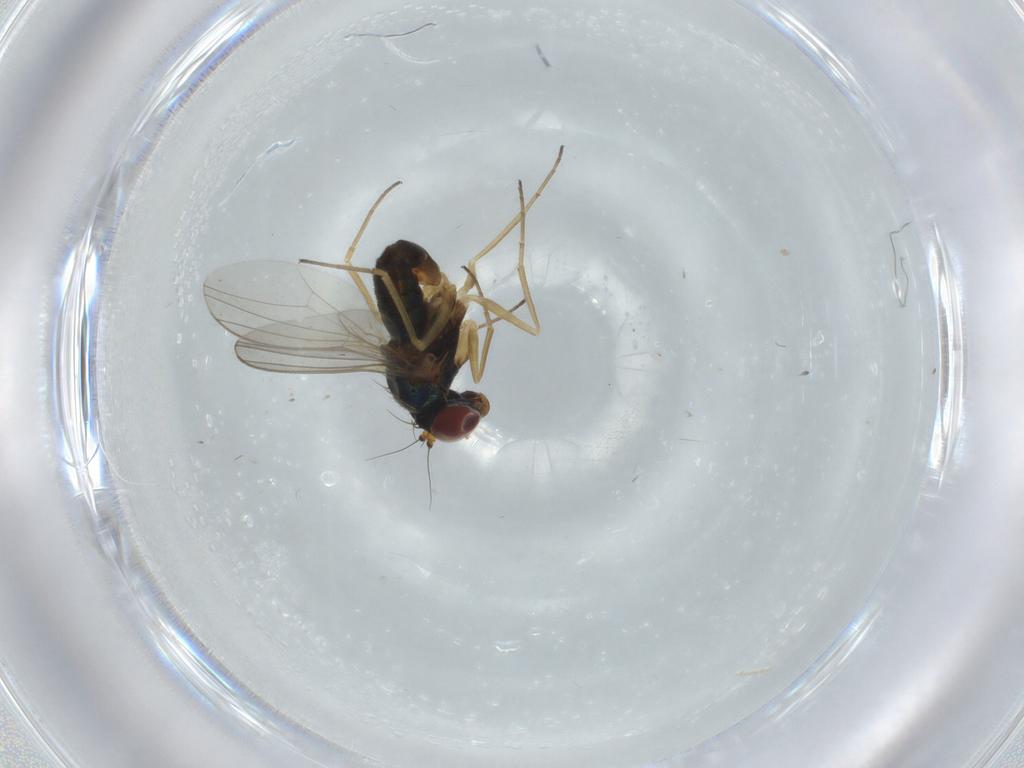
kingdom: Animalia
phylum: Arthropoda
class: Insecta
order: Diptera
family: Dolichopodidae
